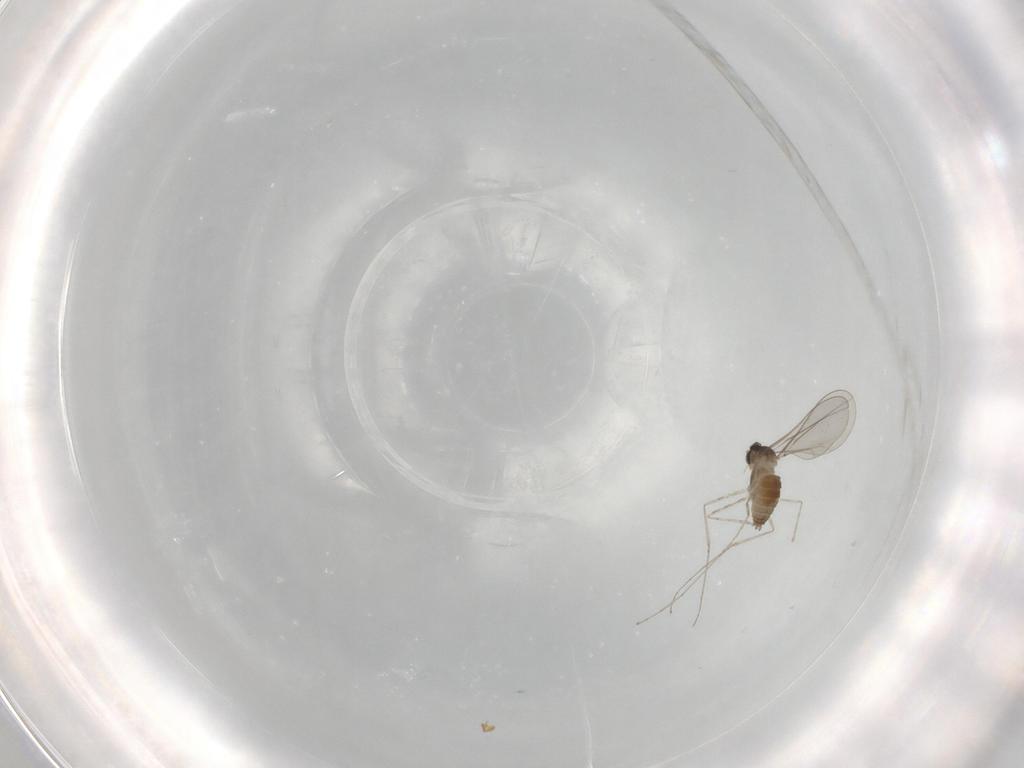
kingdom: Animalia
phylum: Arthropoda
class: Insecta
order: Diptera
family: Cecidomyiidae
